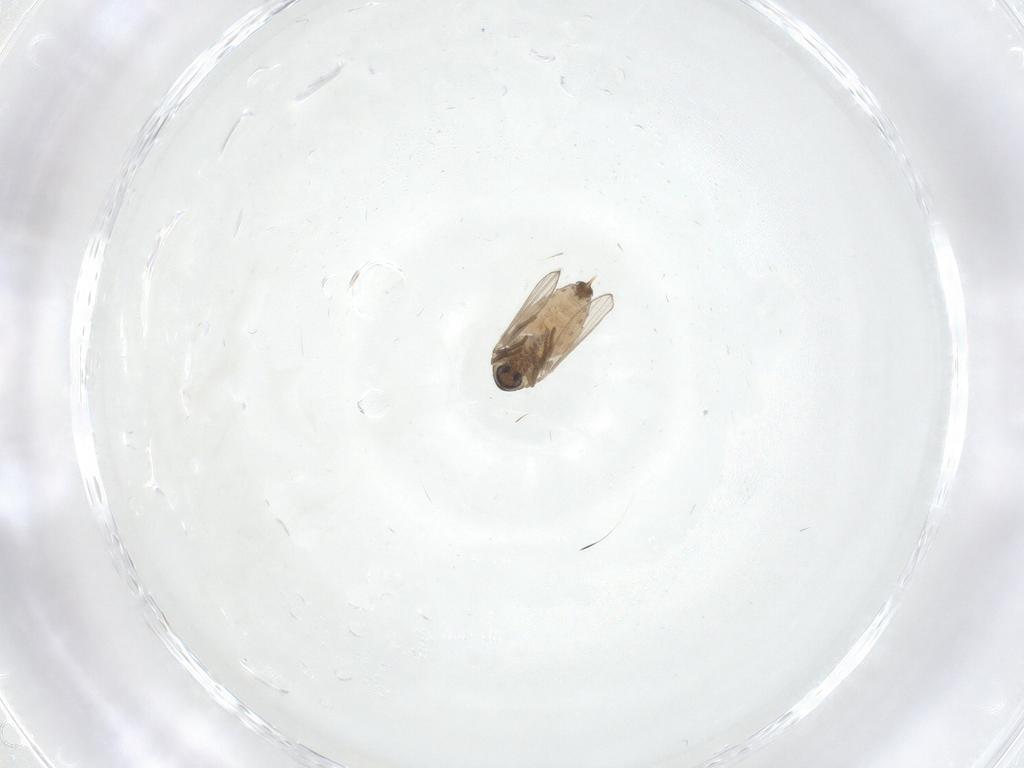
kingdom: Animalia
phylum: Arthropoda
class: Insecta
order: Diptera
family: Psychodidae
